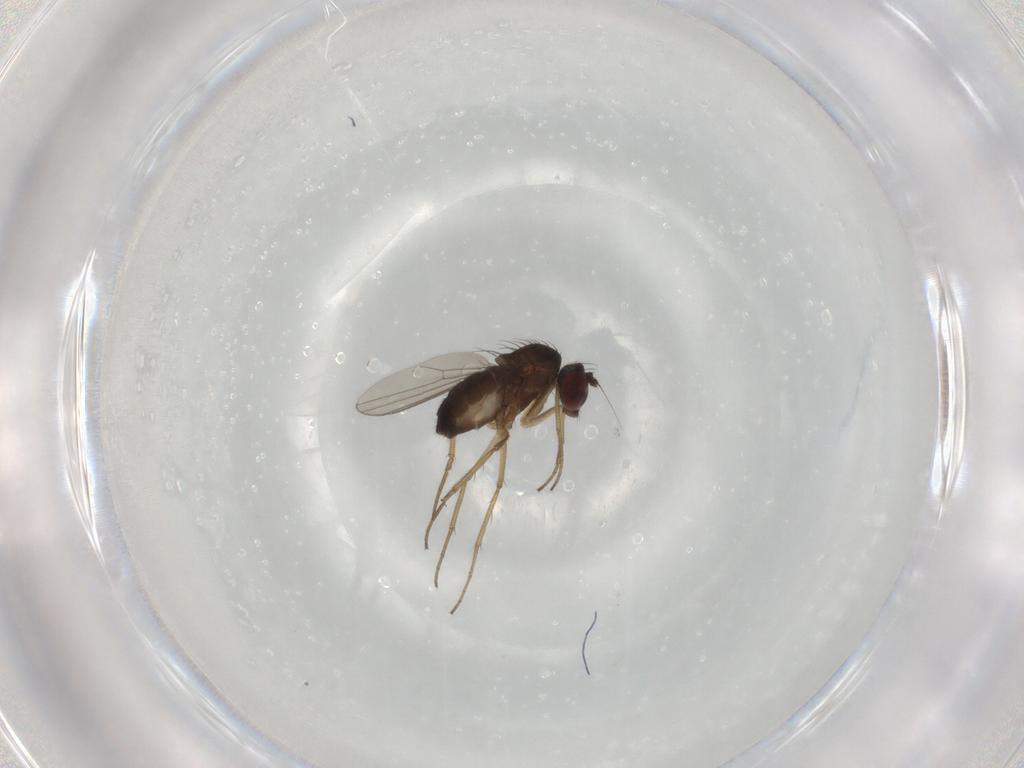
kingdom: Animalia
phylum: Arthropoda
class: Insecta
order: Diptera
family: Dolichopodidae
